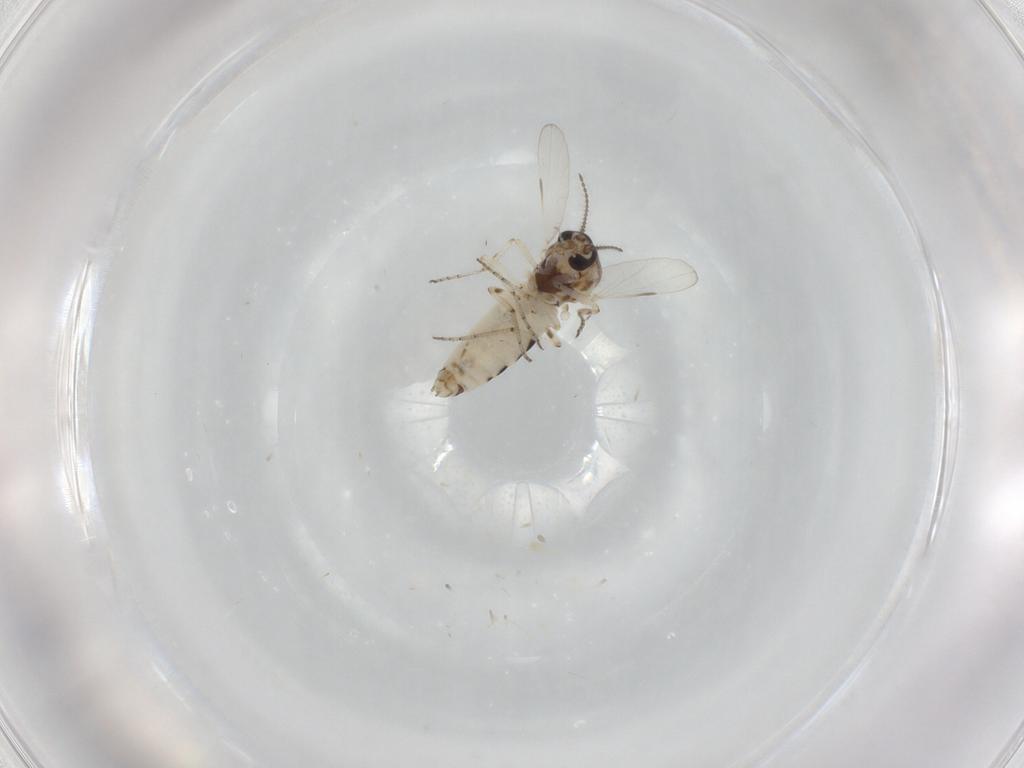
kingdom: Animalia
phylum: Arthropoda
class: Insecta
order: Diptera
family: Ceratopogonidae
